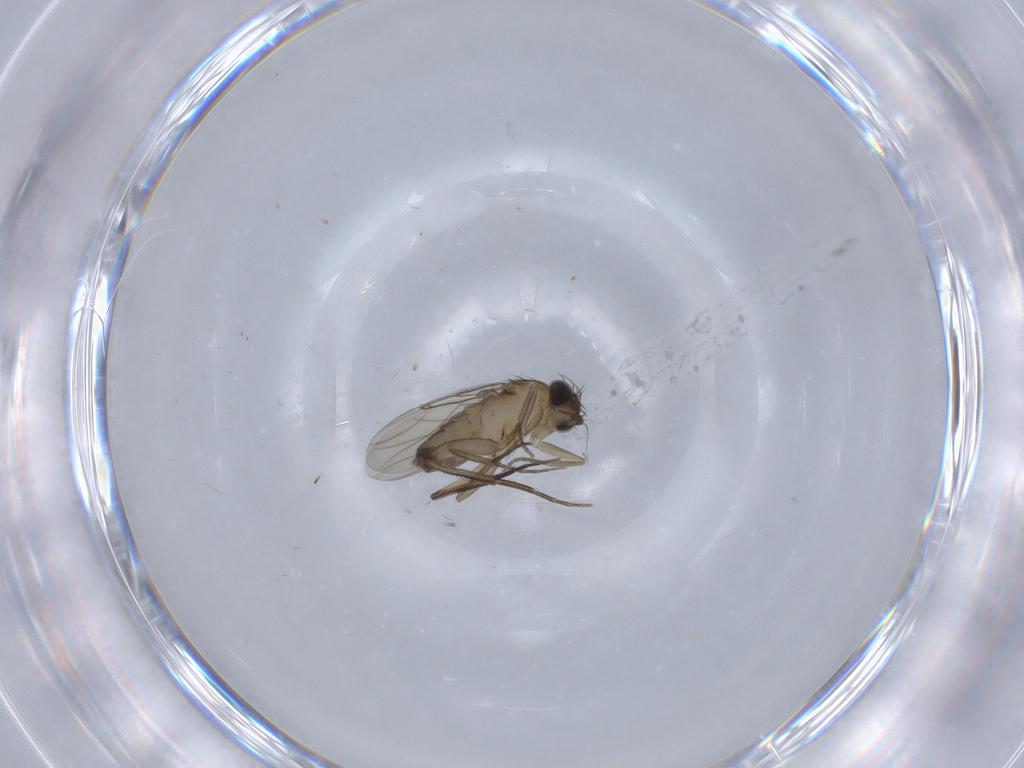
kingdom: Animalia
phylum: Arthropoda
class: Insecta
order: Diptera
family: Phoridae
